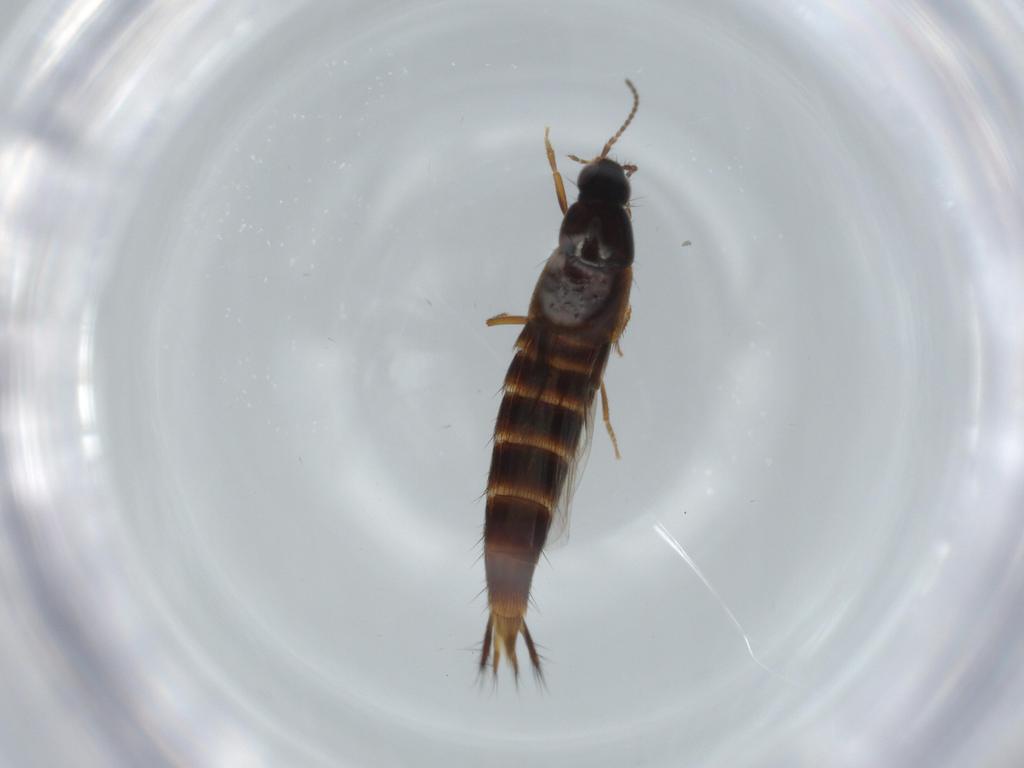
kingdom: Animalia
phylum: Arthropoda
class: Insecta
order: Coleoptera
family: Staphylinidae
